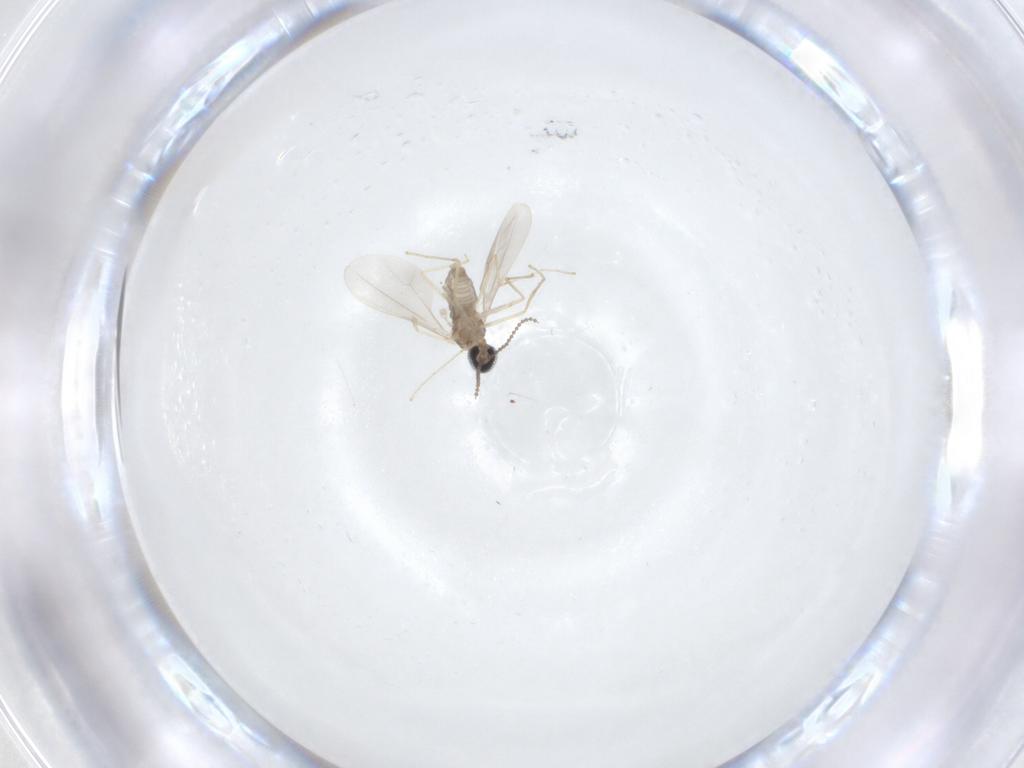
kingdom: Animalia
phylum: Arthropoda
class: Insecta
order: Diptera
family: Cecidomyiidae
